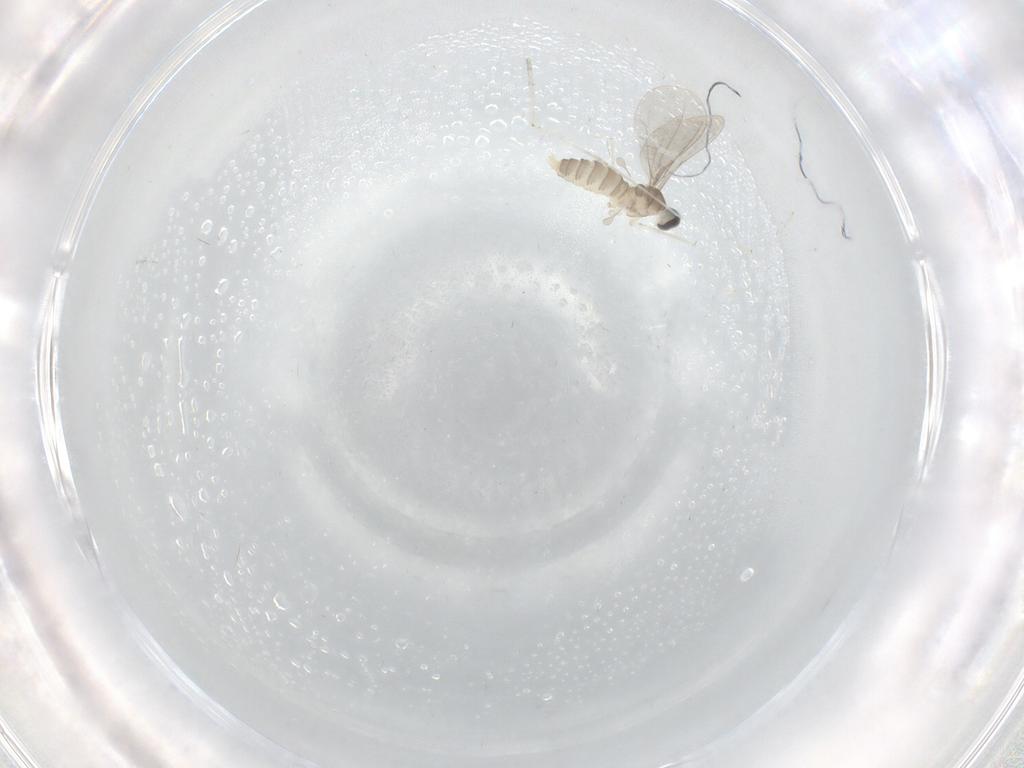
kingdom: Animalia
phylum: Arthropoda
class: Insecta
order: Diptera
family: Cecidomyiidae
